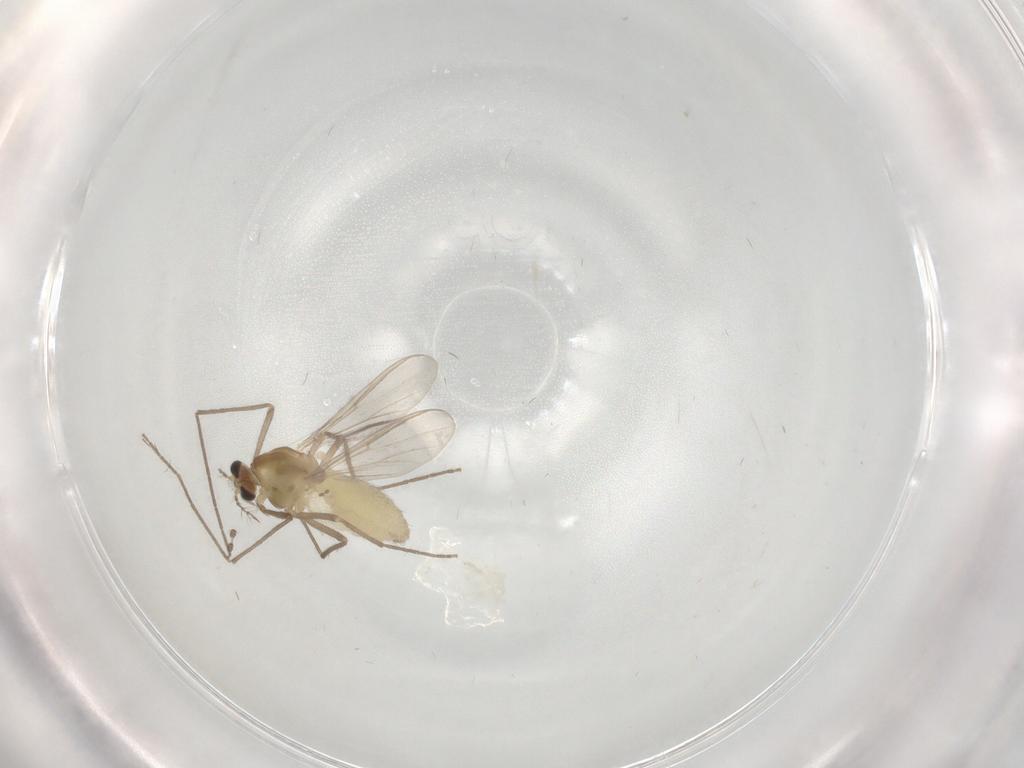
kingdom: Animalia
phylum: Arthropoda
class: Insecta
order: Diptera
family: Chironomidae
